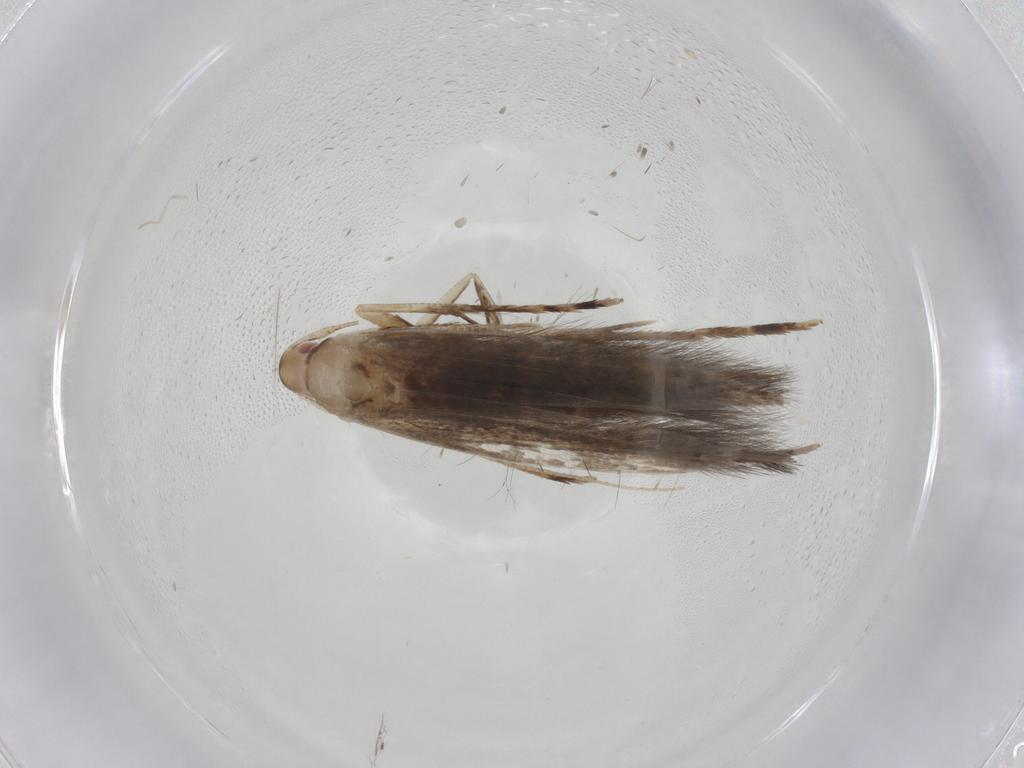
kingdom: Animalia
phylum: Arthropoda
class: Insecta
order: Lepidoptera
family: Cosmopterigidae
